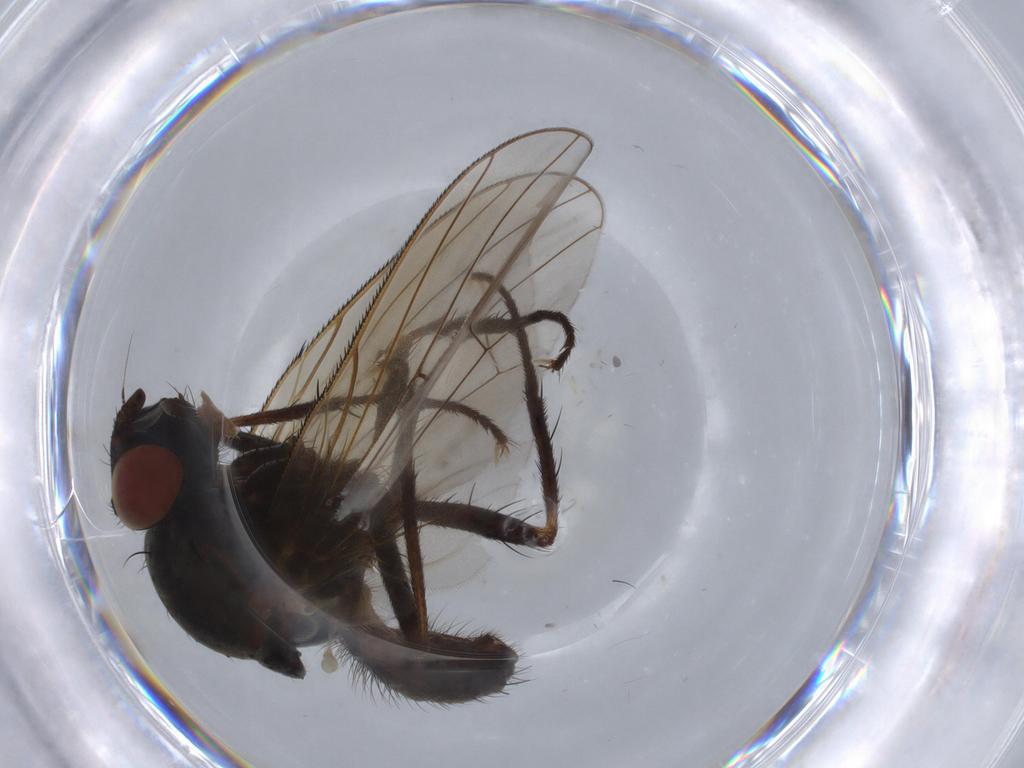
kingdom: Animalia
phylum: Arthropoda
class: Insecta
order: Diptera
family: Anthomyiidae
